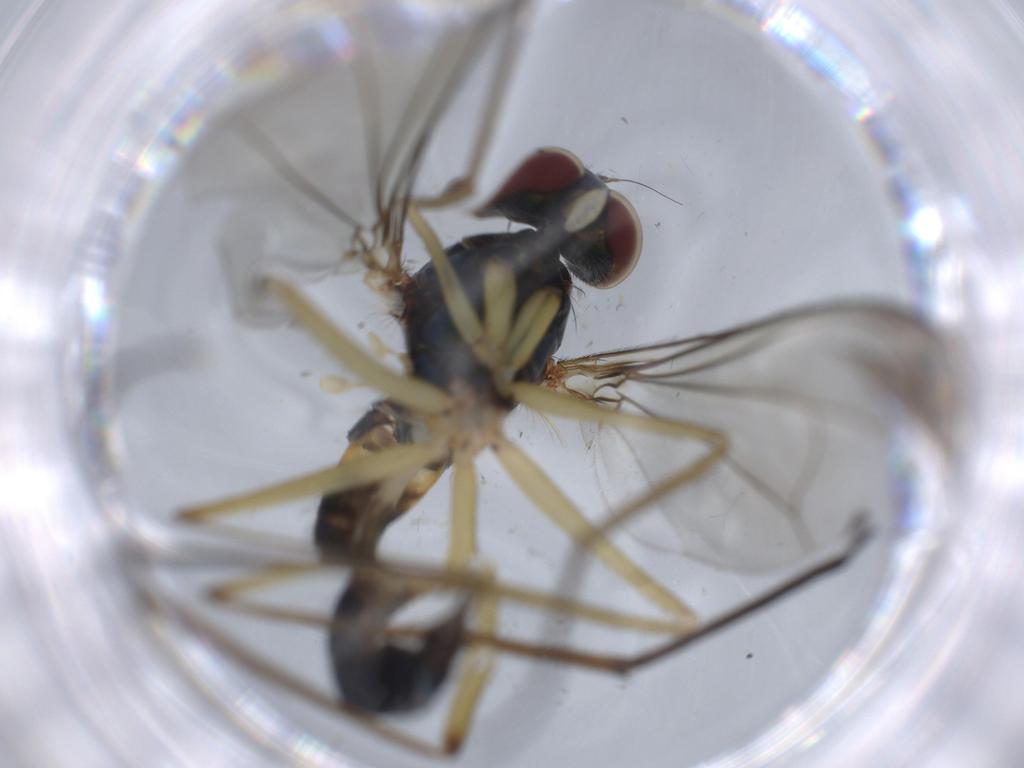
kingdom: Animalia
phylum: Arthropoda
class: Insecta
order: Diptera
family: Dolichopodidae
